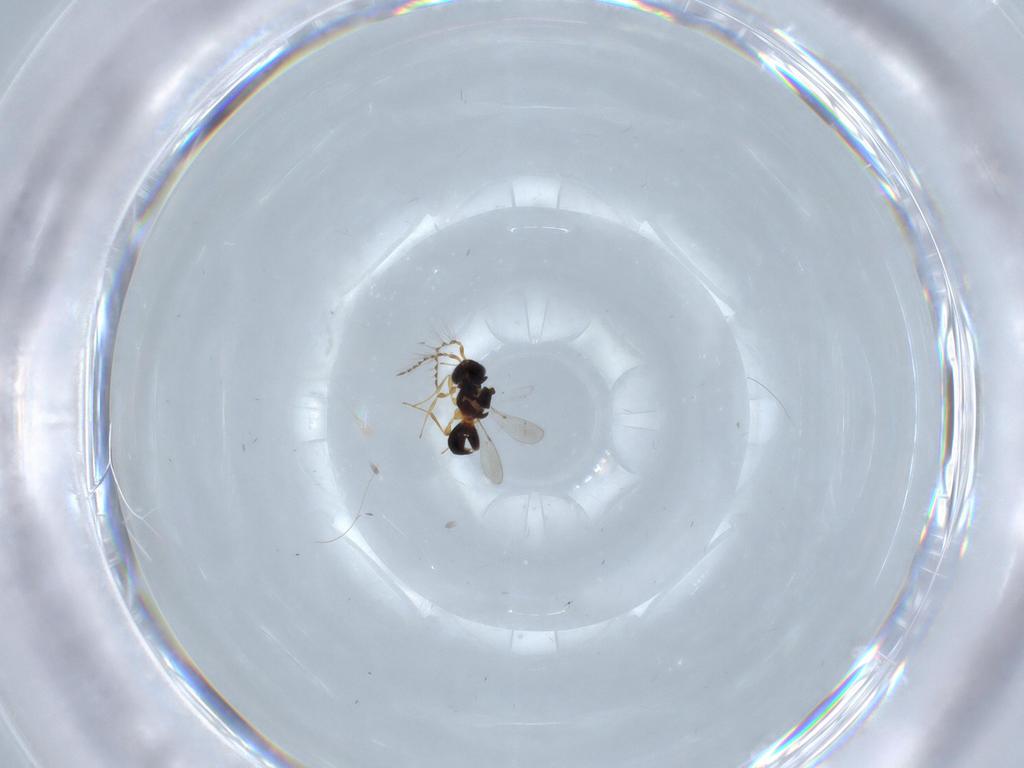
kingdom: Animalia
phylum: Arthropoda
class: Insecta
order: Hymenoptera
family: Platygastridae
